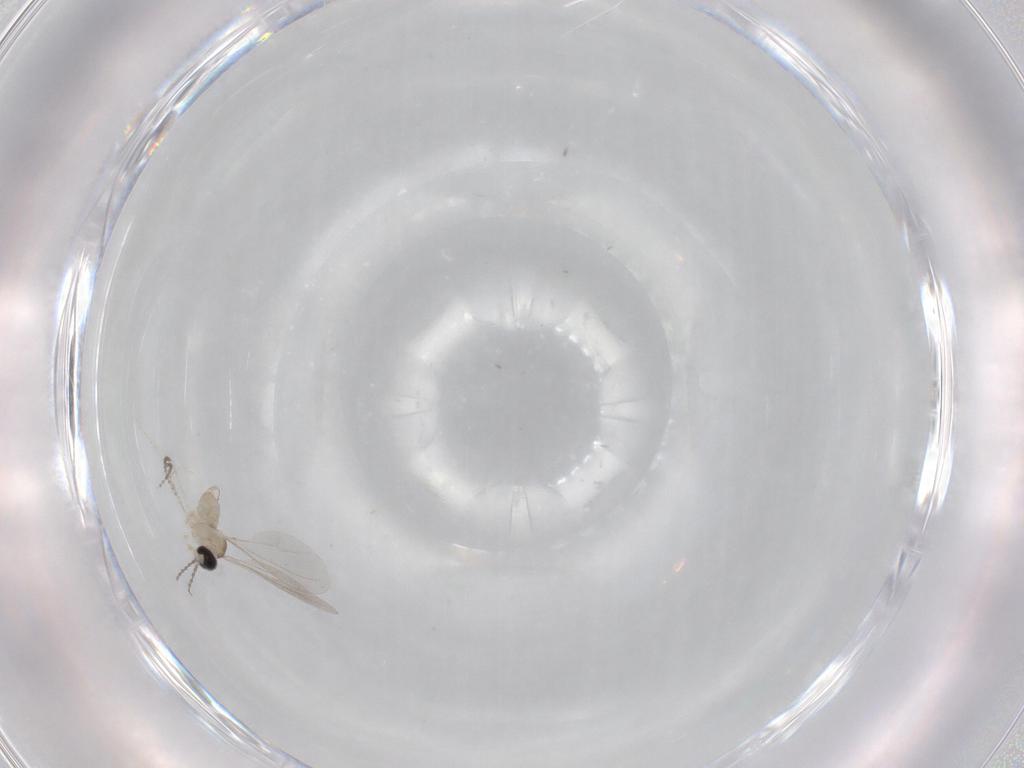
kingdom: Animalia
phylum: Arthropoda
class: Insecta
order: Diptera
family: Cecidomyiidae
